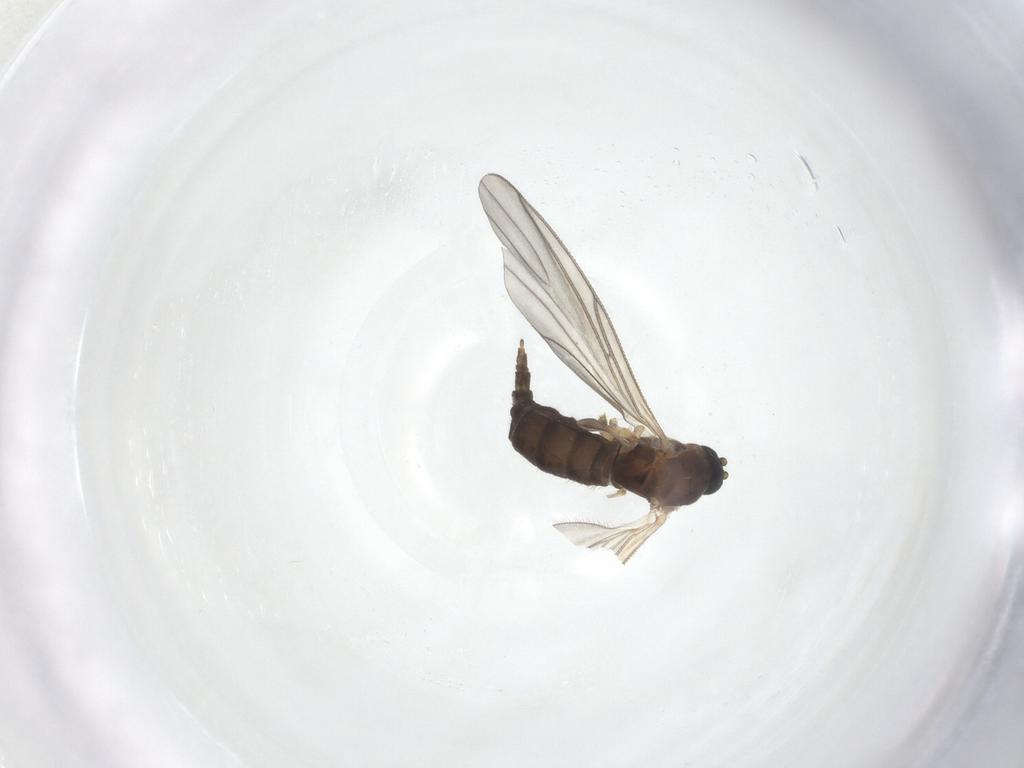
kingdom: Animalia
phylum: Arthropoda
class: Insecta
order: Diptera
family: Sciaridae
